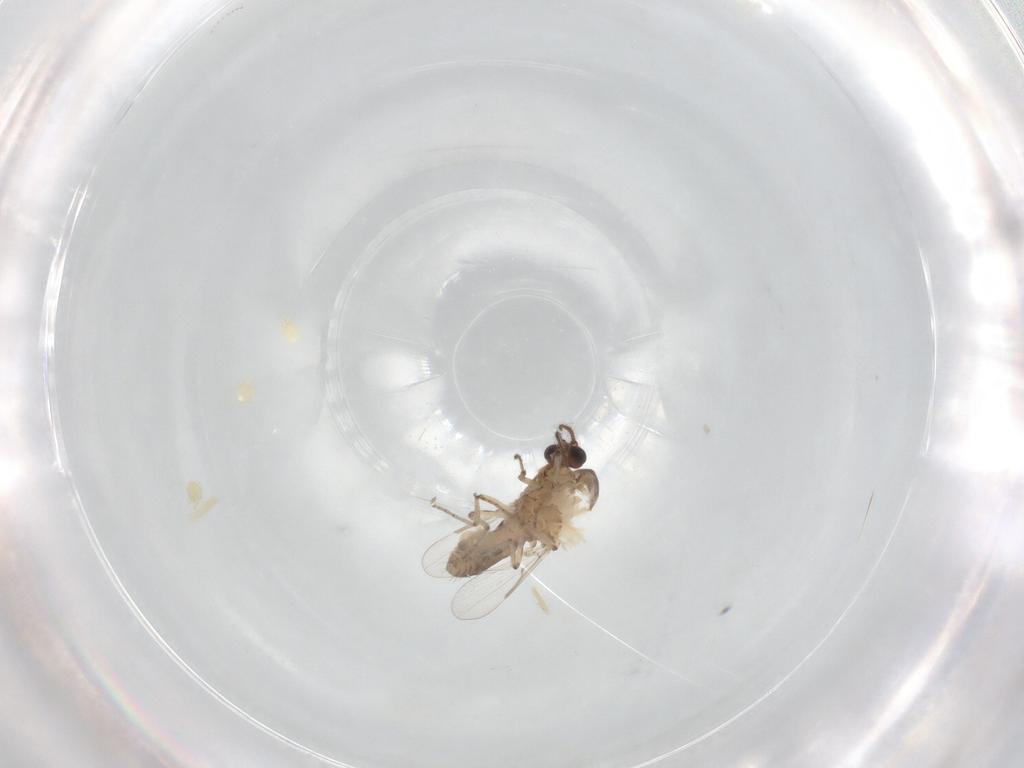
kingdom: Animalia
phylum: Arthropoda
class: Insecta
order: Diptera
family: Ceratopogonidae
